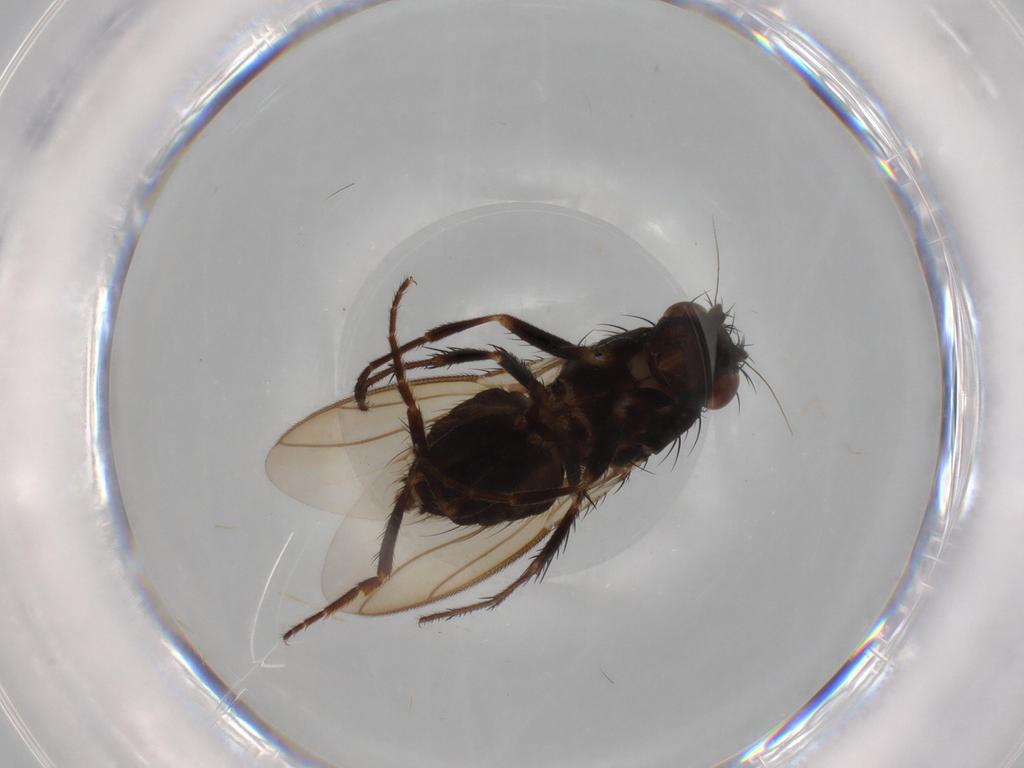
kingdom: Animalia
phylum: Arthropoda
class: Insecta
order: Diptera
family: Sphaeroceridae
